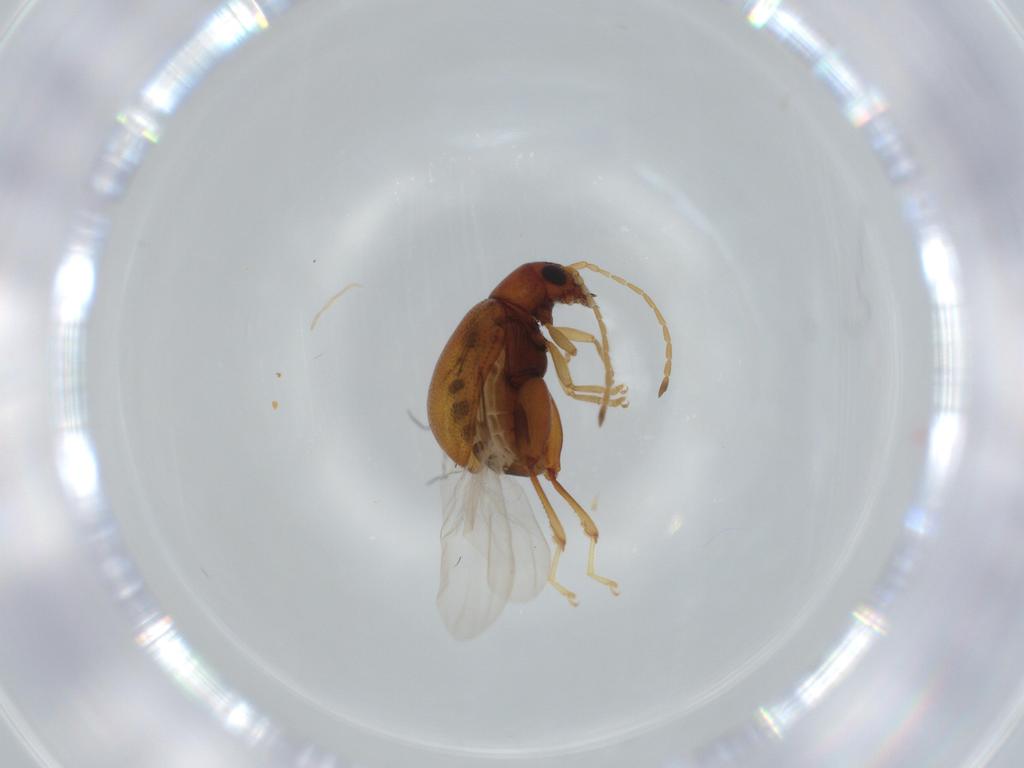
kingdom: Animalia
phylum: Arthropoda
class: Insecta
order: Coleoptera
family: Chrysomelidae
